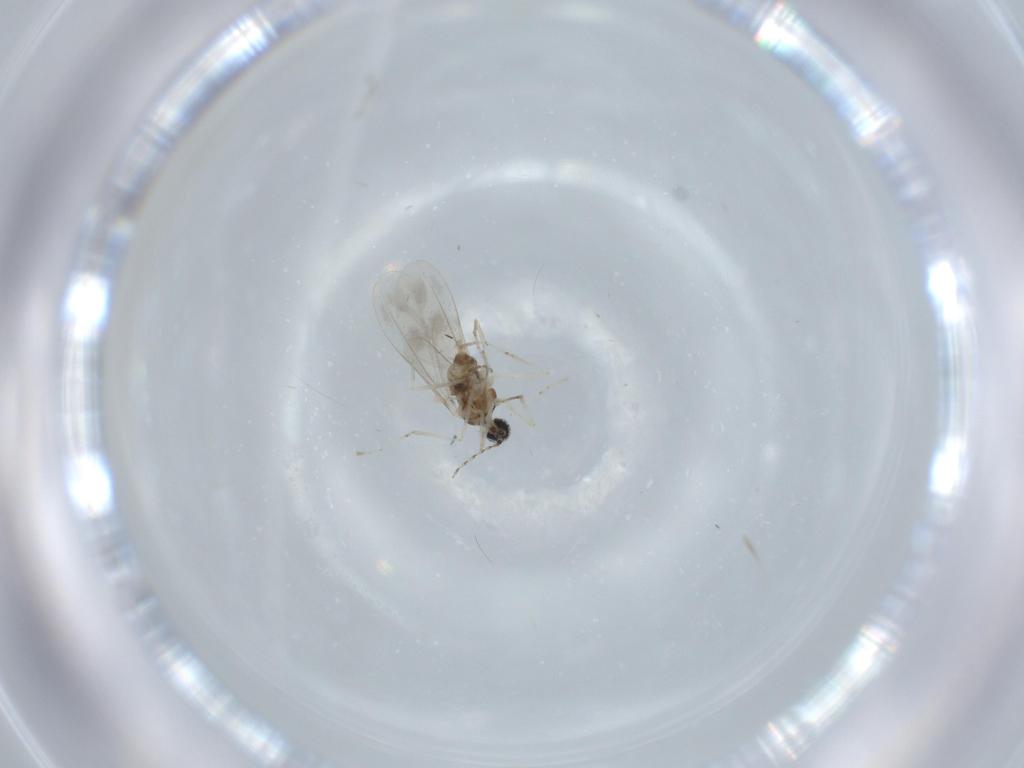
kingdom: Animalia
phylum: Arthropoda
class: Insecta
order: Diptera
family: Cecidomyiidae
